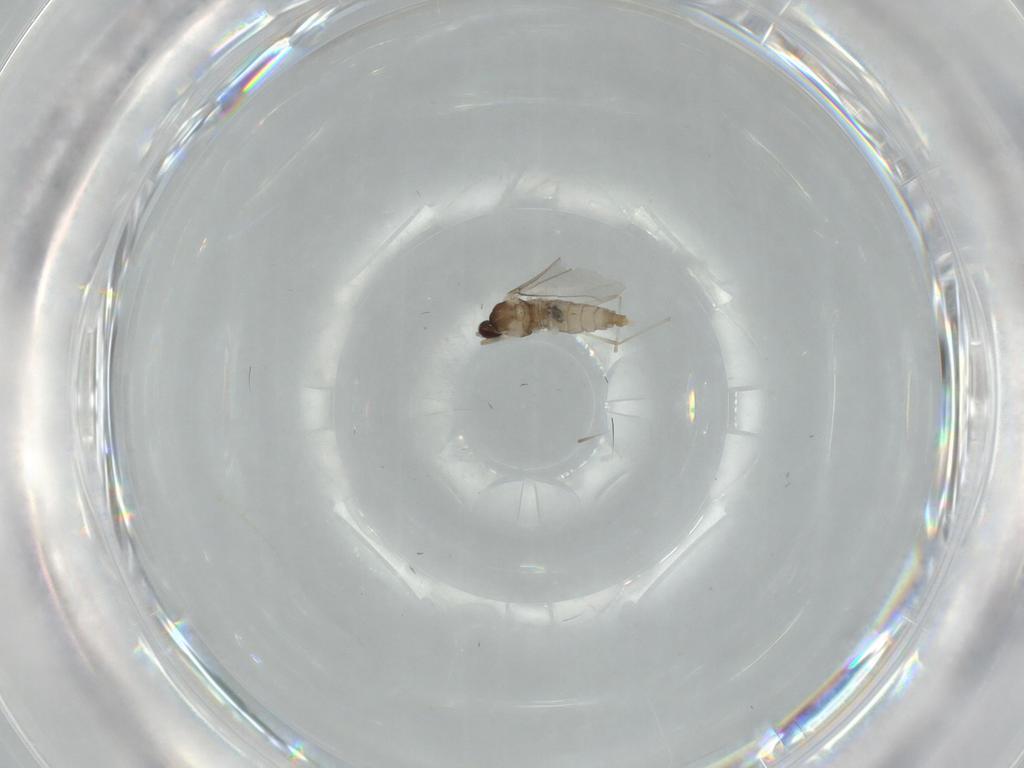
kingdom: Animalia
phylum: Arthropoda
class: Insecta
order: Diptera
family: Cecidomyiidae
